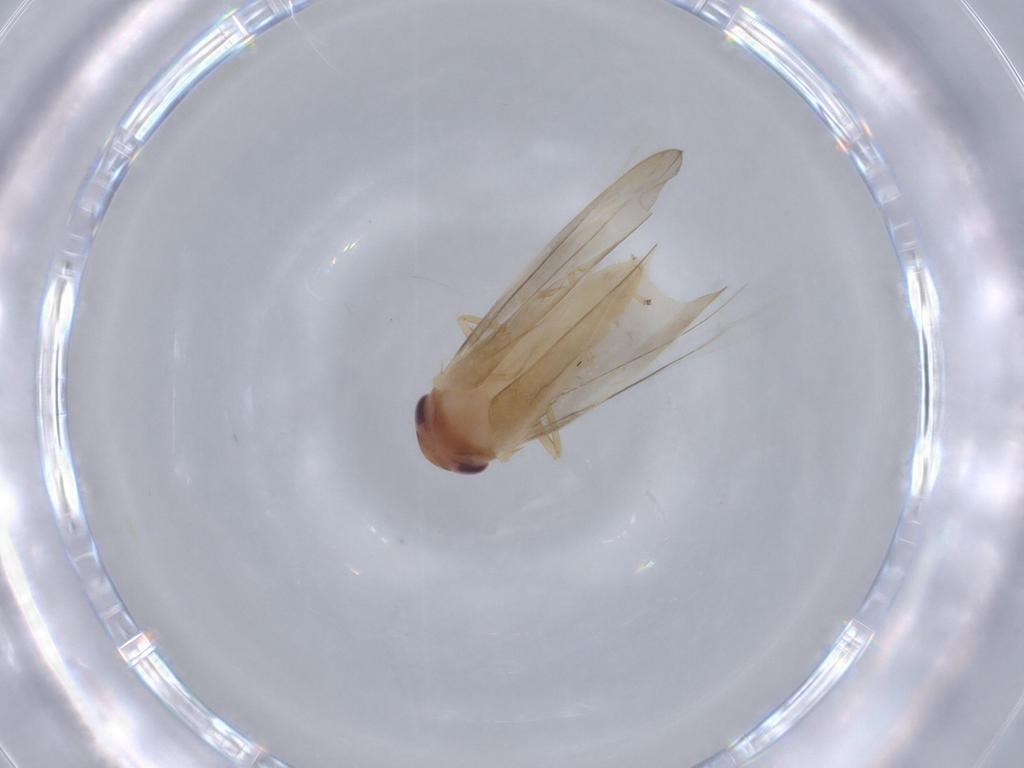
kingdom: Animalia
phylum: Arthropoda
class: Insecta
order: Hemiptera
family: Cicadellidae
